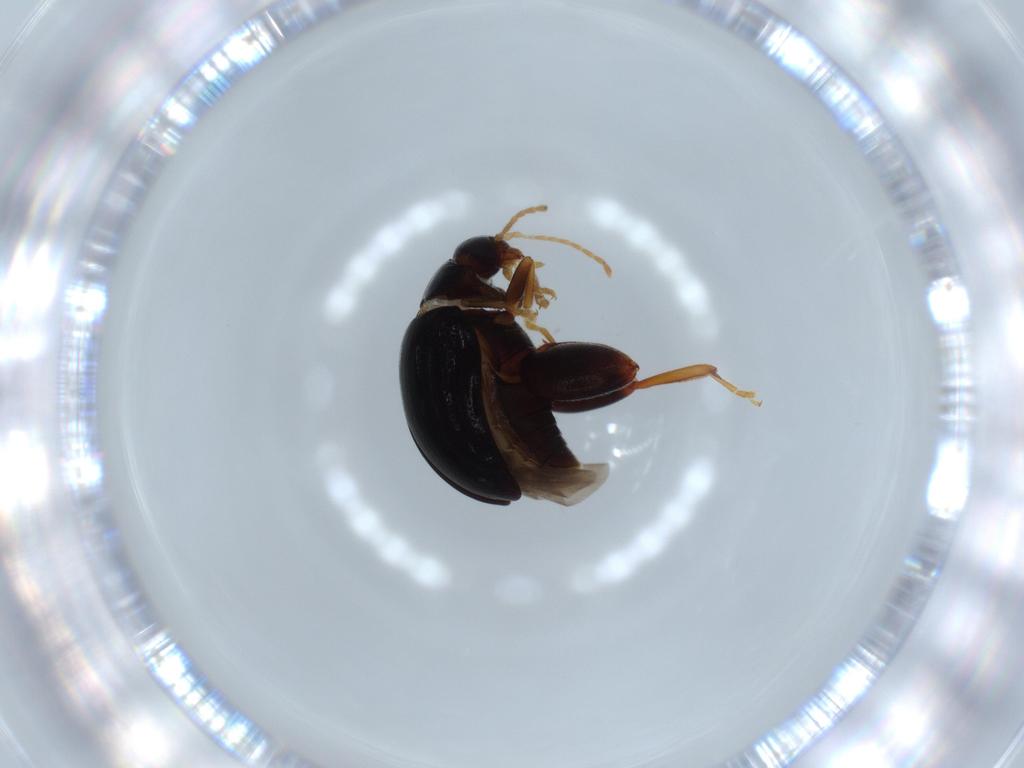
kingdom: Animalia
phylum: Arthropoda
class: Insecta
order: Coleoptera
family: Chrysomelidae
